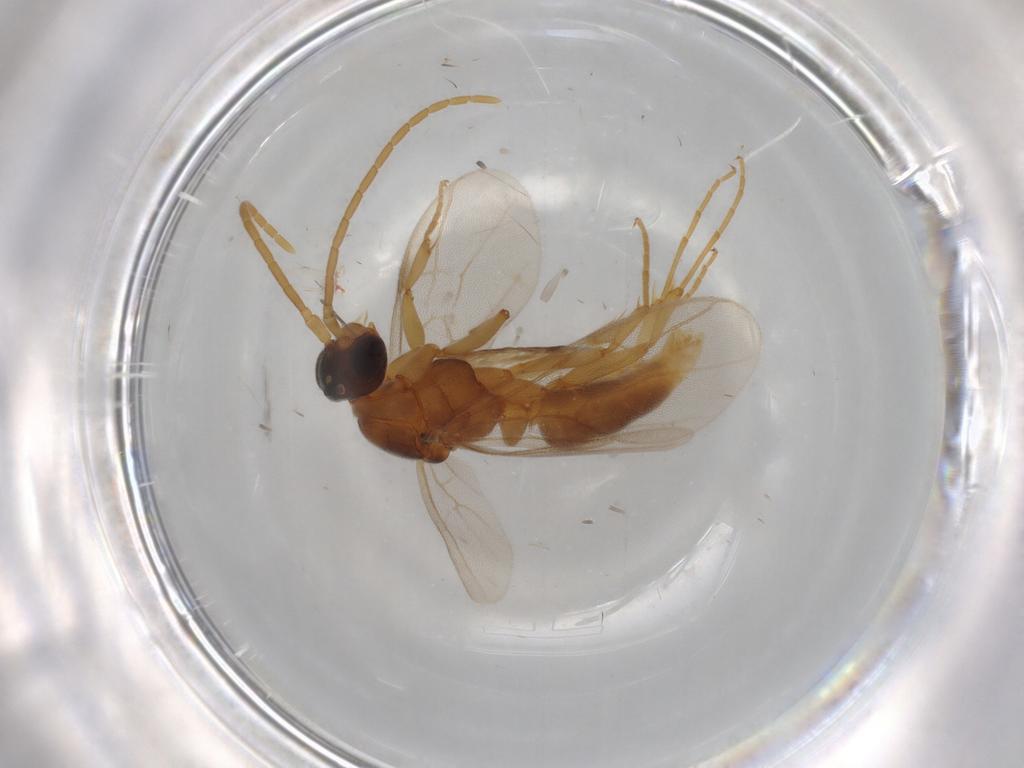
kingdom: Animalia
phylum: Arthropoda
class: Insecta
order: Hymenoptera
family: Formicidae
